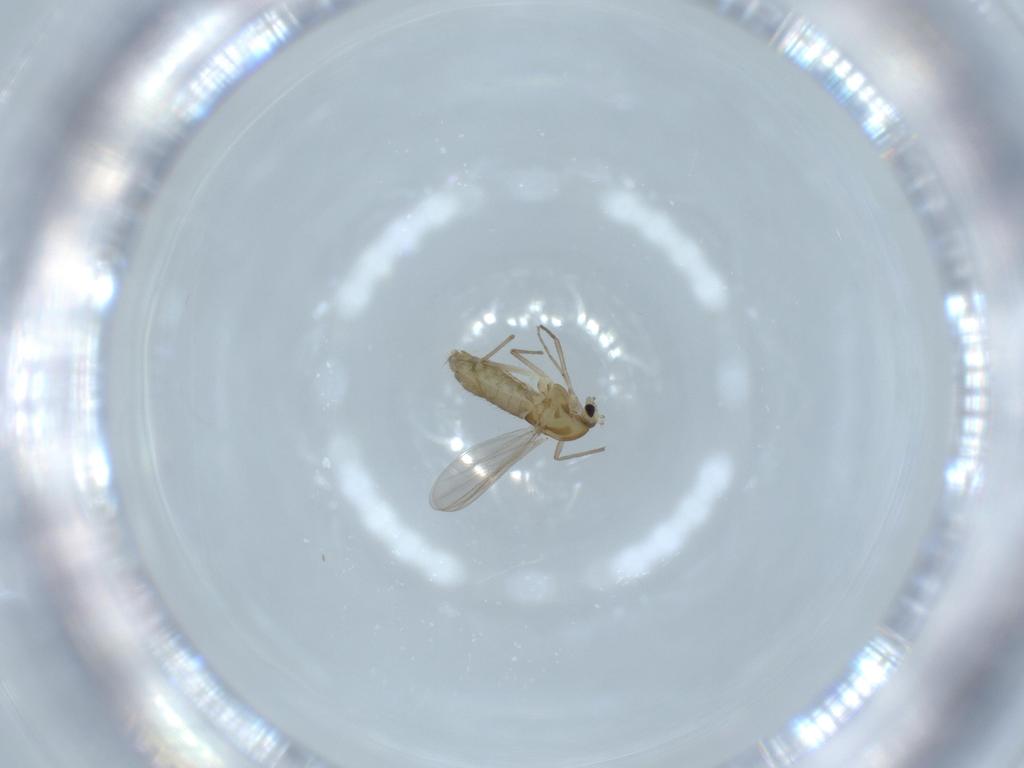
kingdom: Animalia
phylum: Arthropoda
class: Insecta
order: Diptera
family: Chironomidae
